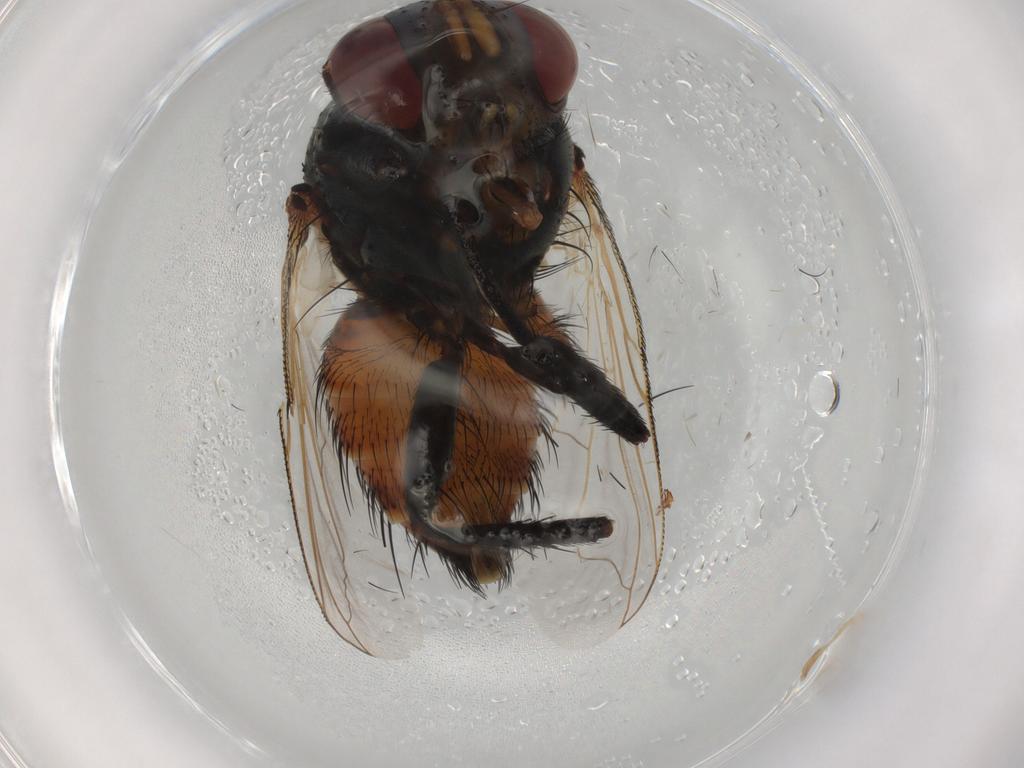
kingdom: Animalia
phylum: Arthropoda
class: Insecta
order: Diptera
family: Tachinidae
